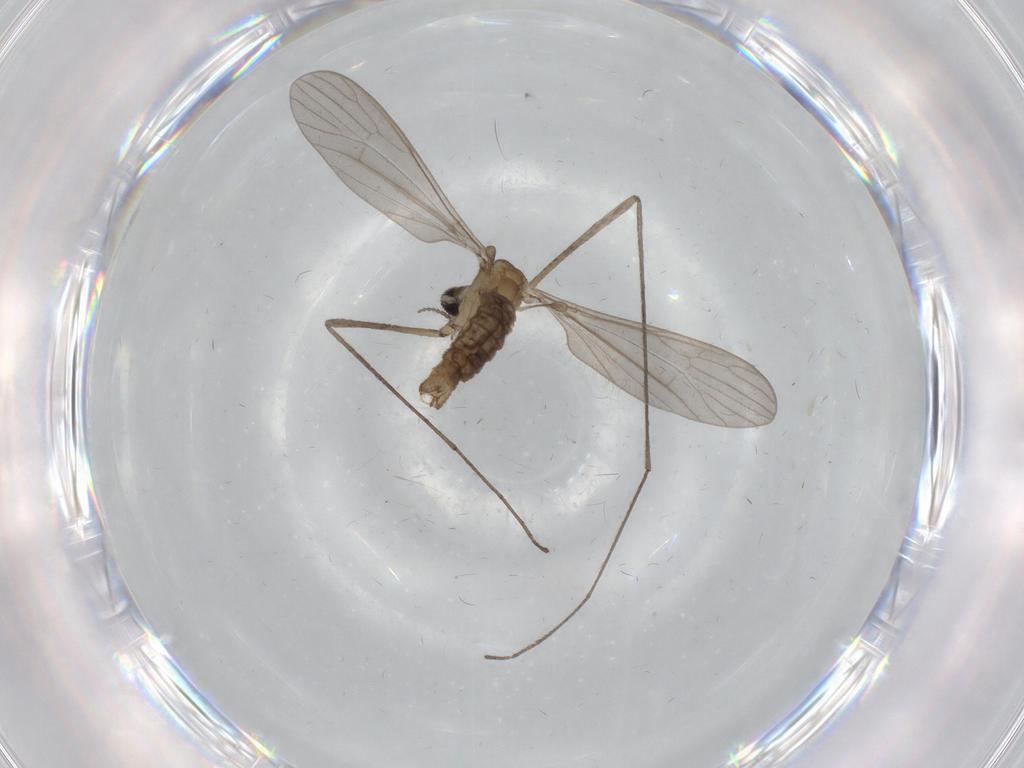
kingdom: Animalia
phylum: Arthropoda
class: Insecta
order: Diptera
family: Limoniidae
